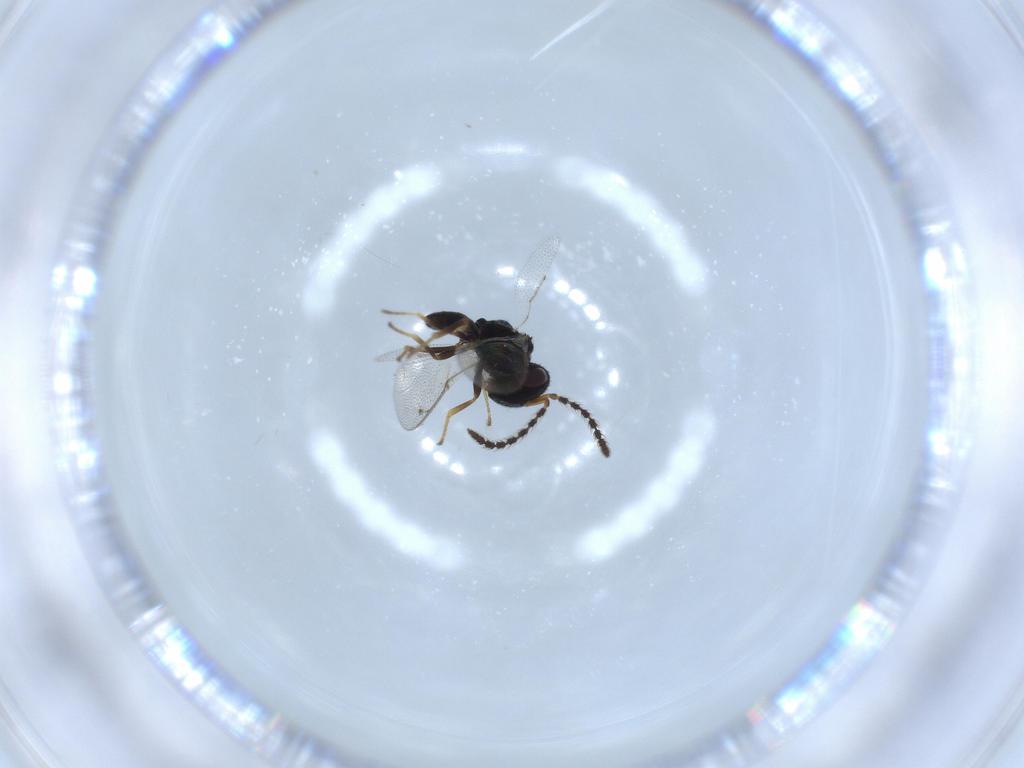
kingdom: Animalia
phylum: Arthropoda
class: Insecta
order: Hymenoptera
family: Pteromalidae
